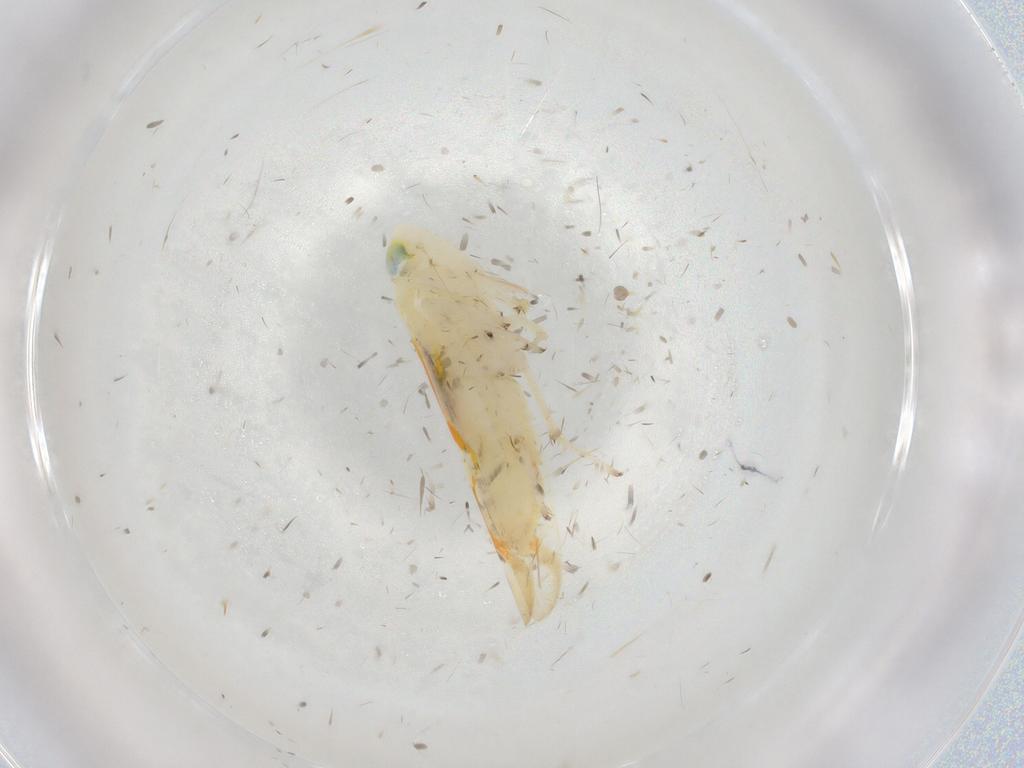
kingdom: Animalia
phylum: Arthropoda
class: Insecta
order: Hemiptera
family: Cicadellidae
